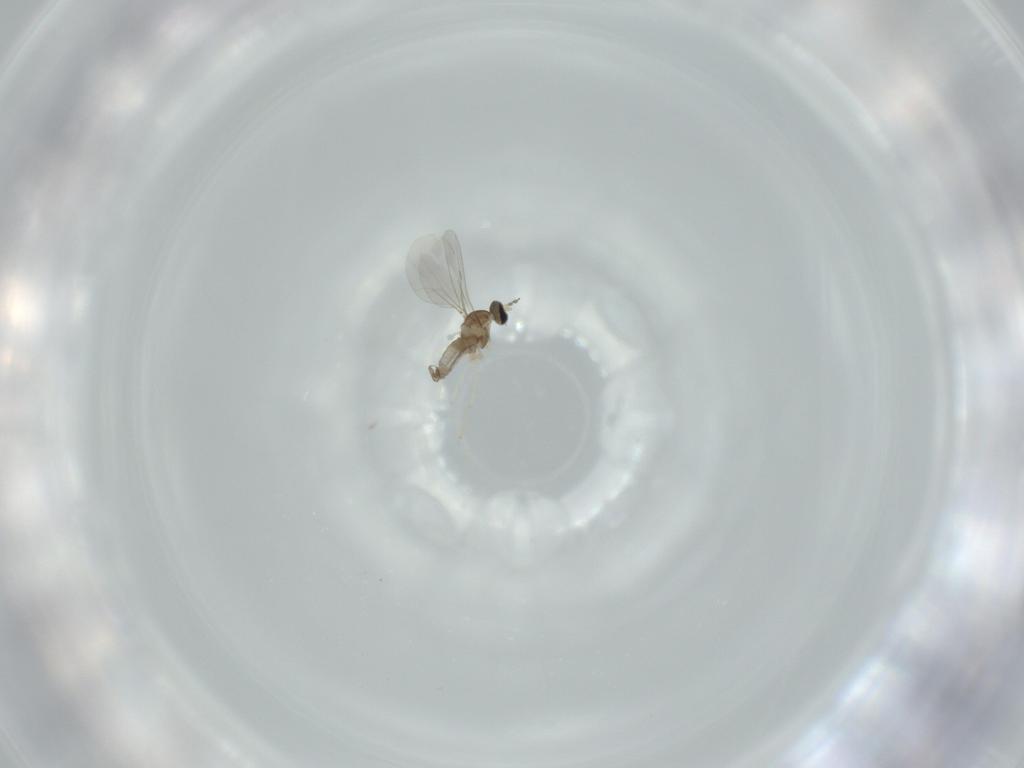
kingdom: Animalia
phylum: Arthropoda
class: Insecta
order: Diptera
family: Cecidomyiidae
